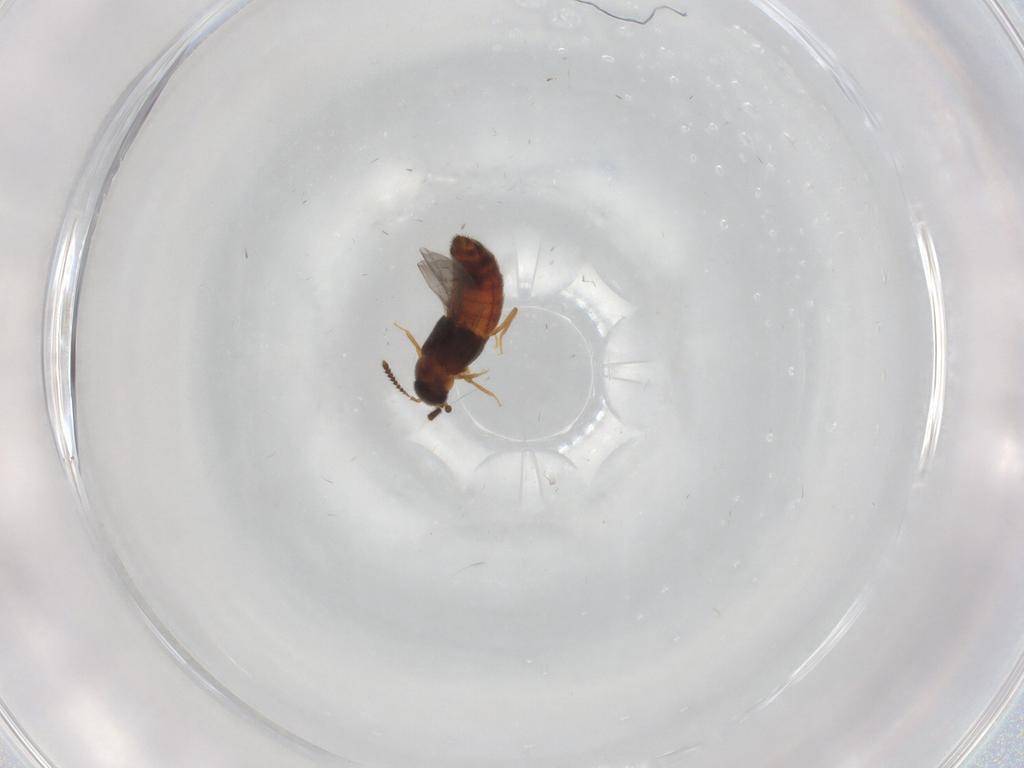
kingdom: Animalia
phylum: Arthropoda
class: Insecta
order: Coleoptera
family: Staphylinidae
